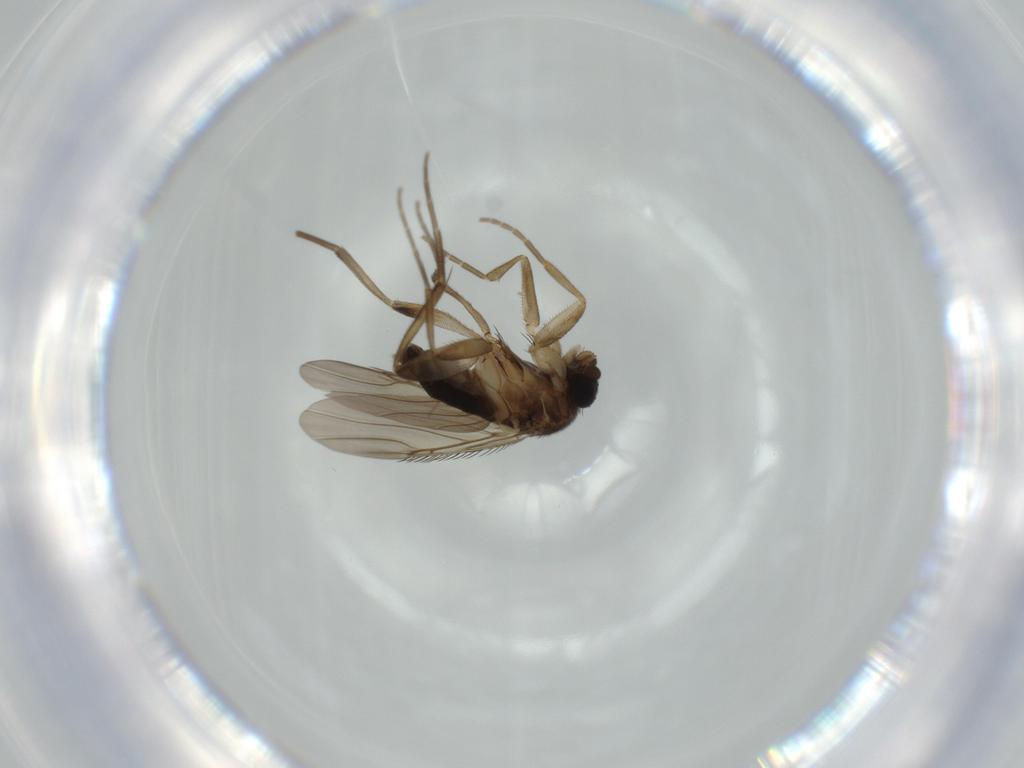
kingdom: Animalia
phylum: Arthropoda
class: Insecta
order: Diptera
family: Phoridae
